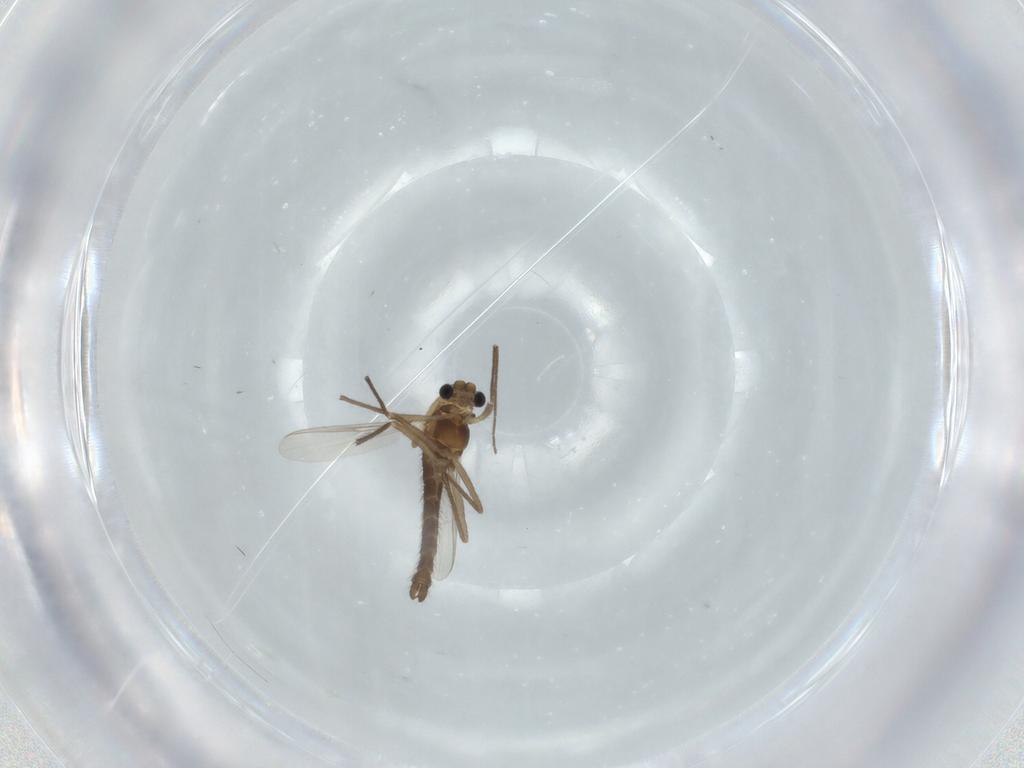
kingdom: Animalia
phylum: Arthropoda
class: Insecta
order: Diptera
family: Chironomidae
